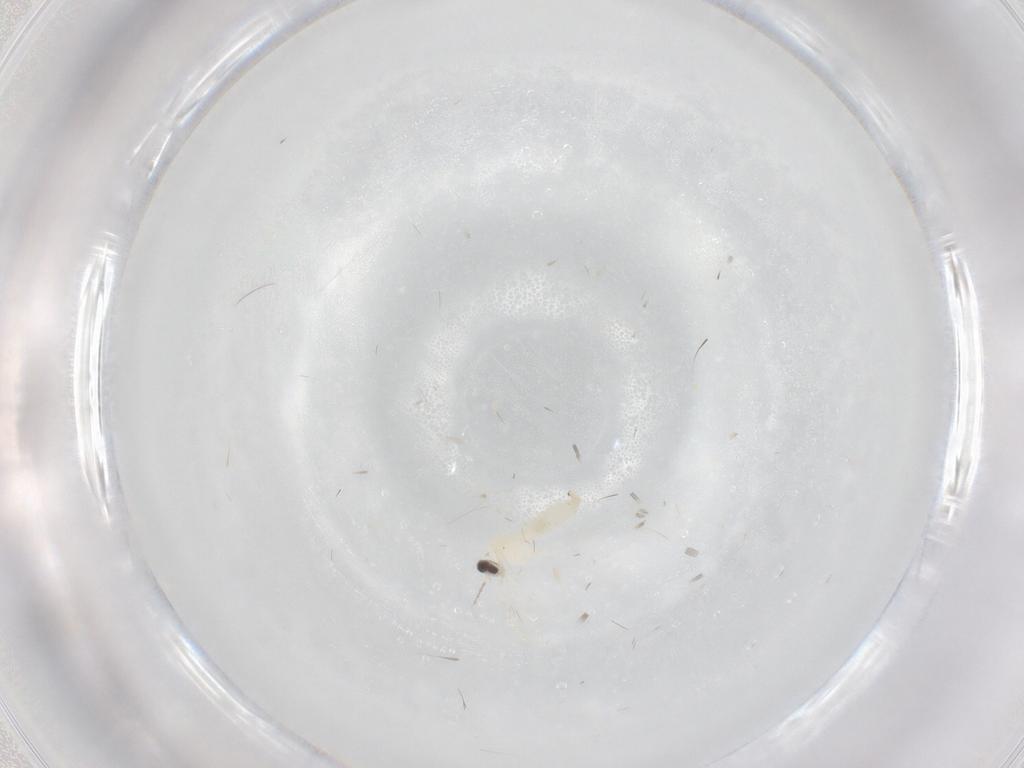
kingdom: Animalia
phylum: Arthropoda
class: Insecta
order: Diptera
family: Cecidomyiidae
